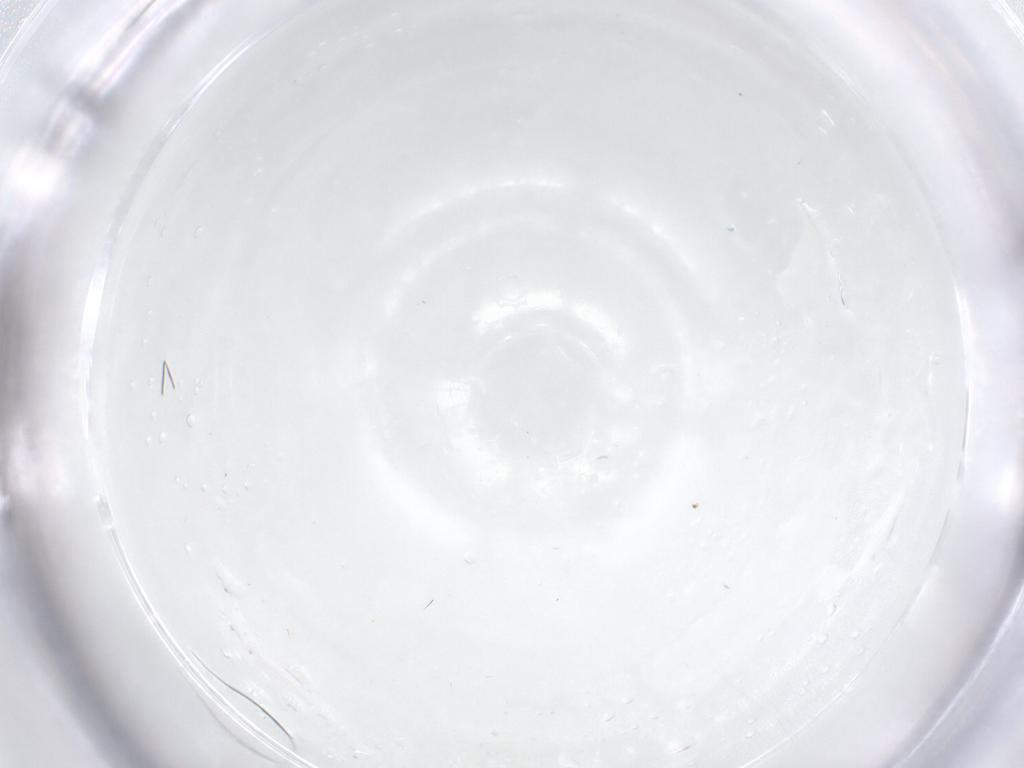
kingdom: Animalia
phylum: Arthropoda
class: Insecta
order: Diptera
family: Cecidomyiidae
